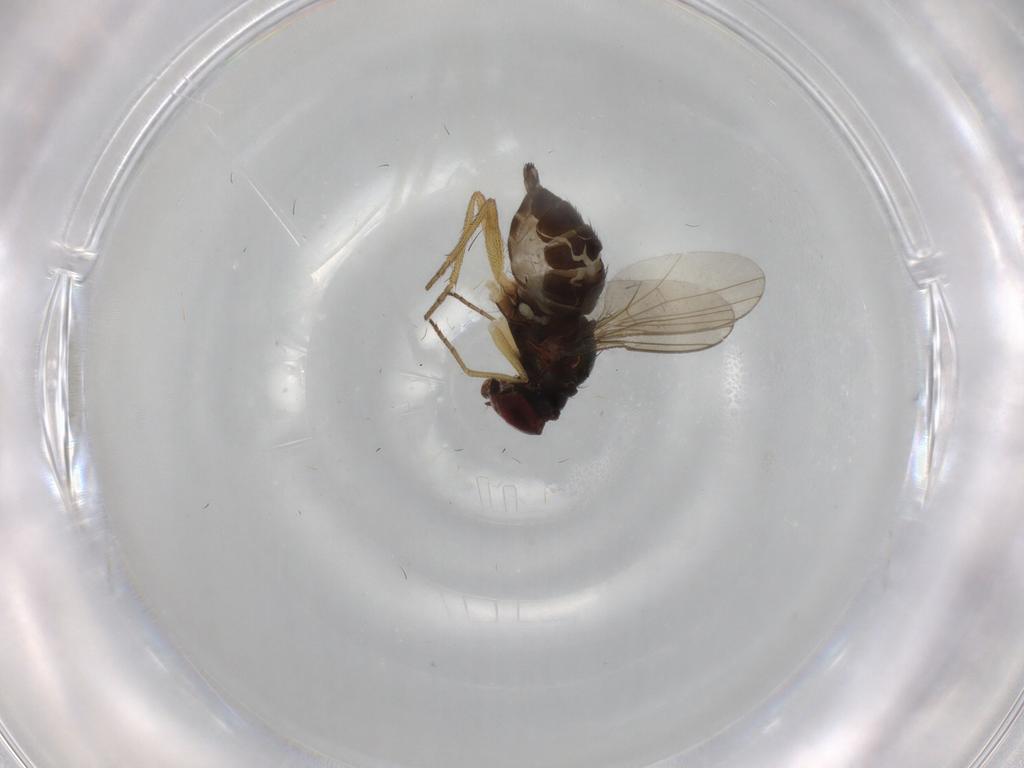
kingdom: Animalia
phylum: Arthropoda
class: Insecta
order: Diptera
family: Dolichopodidae
